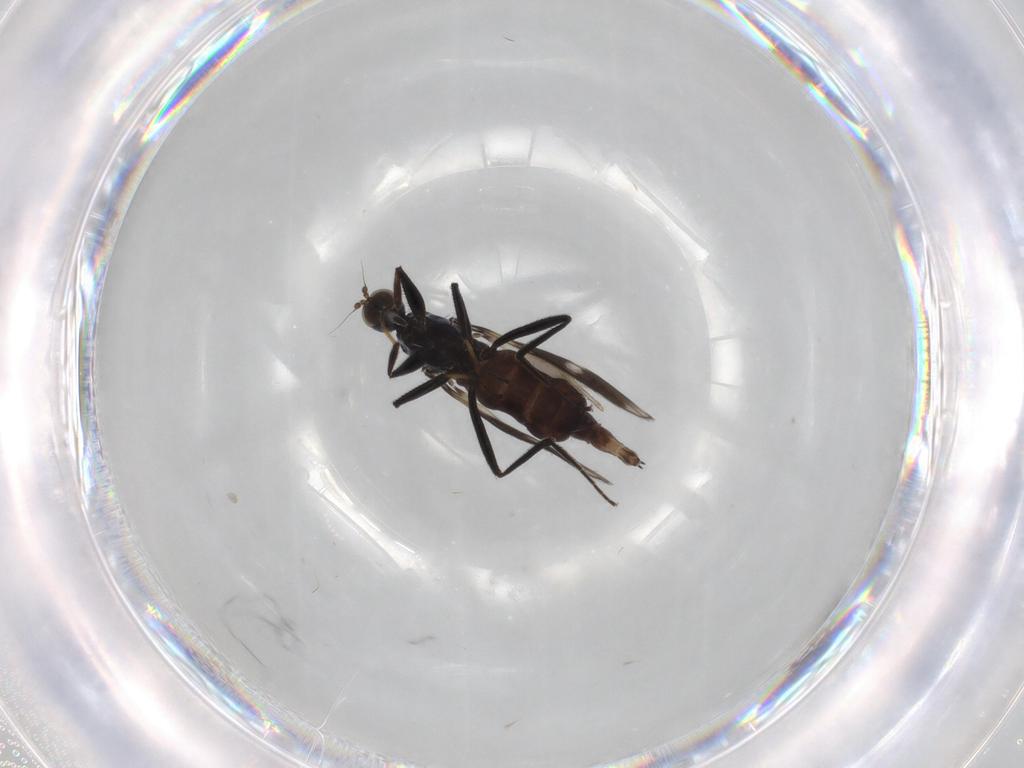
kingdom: Animalia
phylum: Arthropoda
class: Insecta
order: Diptera
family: Hybotidae
